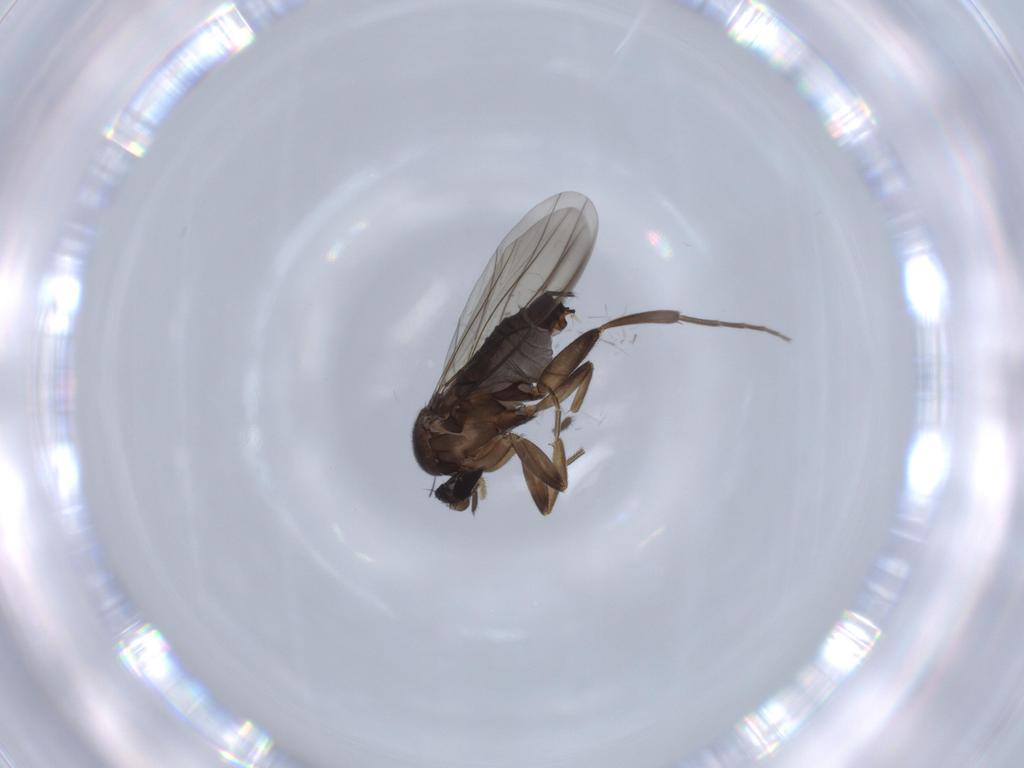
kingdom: Animalia
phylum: Arthropoda
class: Insecta
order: Diptera
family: Psychodidae
